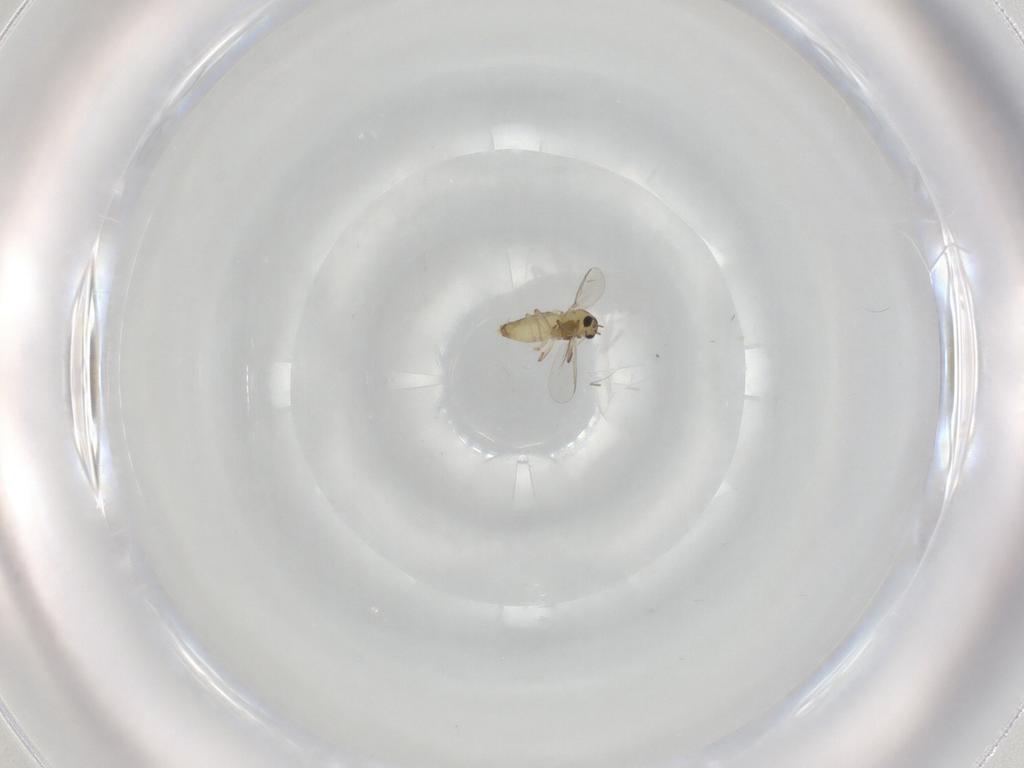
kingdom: Animalia
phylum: Arthropoda
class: Insecta
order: Diptera
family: Chironomidae
